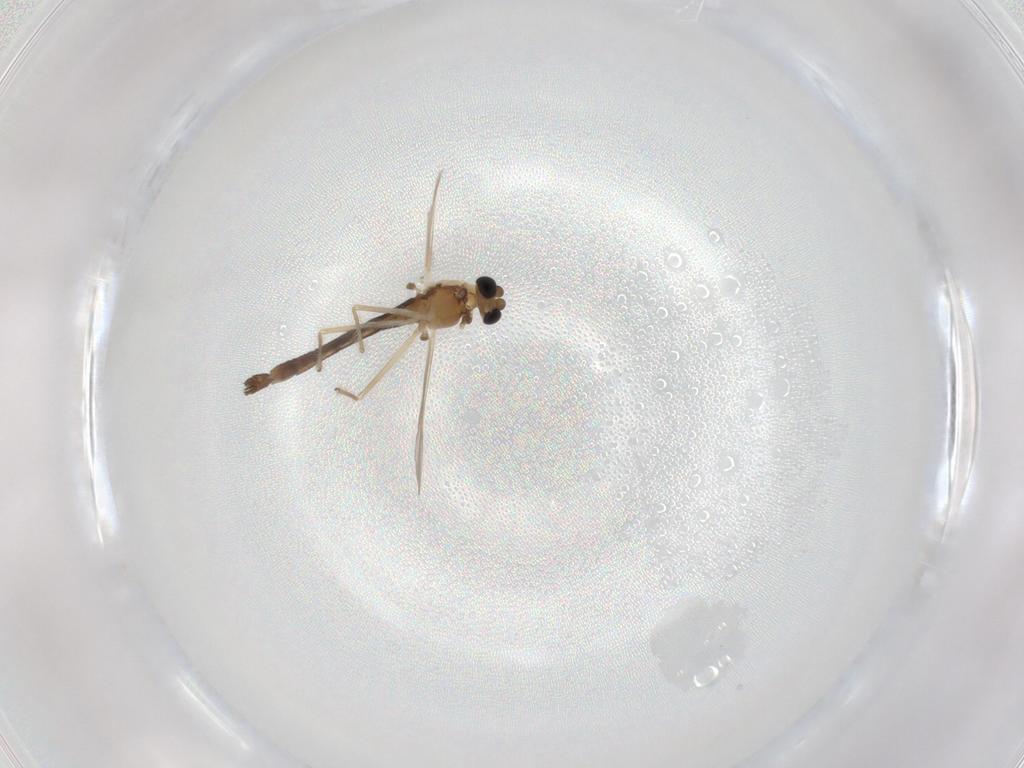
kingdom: Animalia
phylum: Arthropoda
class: Insecta
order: Diptera
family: Chironomidae
